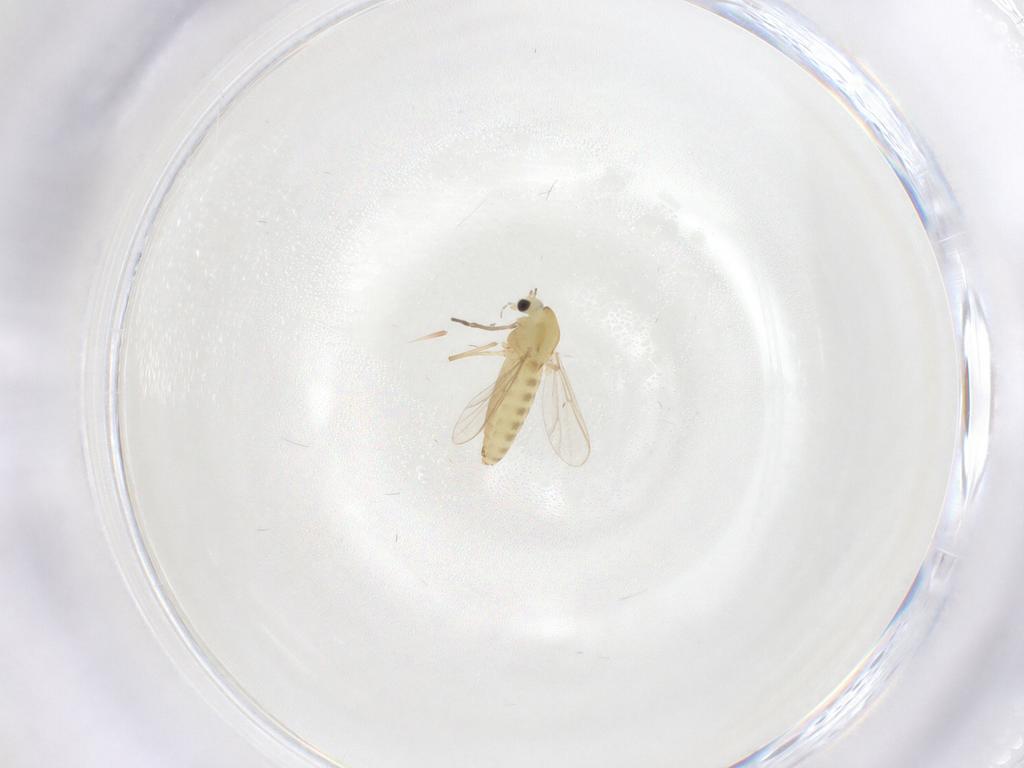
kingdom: Animalia
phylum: Arthropoda
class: Insecta
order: Diptera
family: Chironomidae
